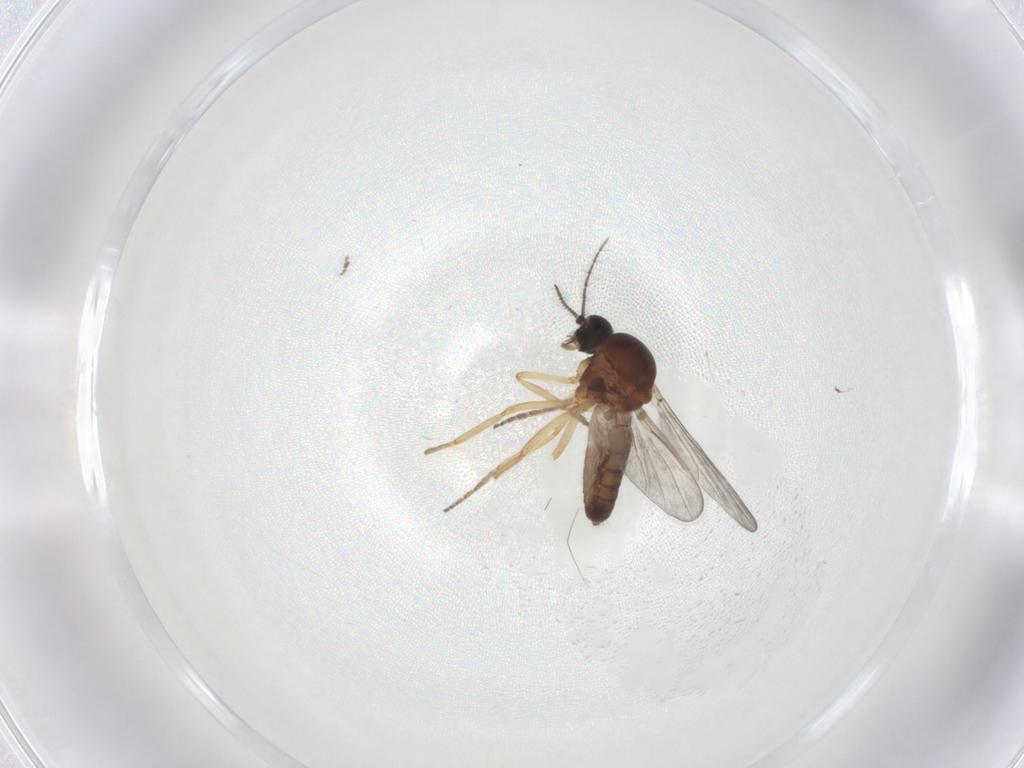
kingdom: Animalia
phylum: Arthropoda
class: Insecta
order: Diptera
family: Ceratopogonidae
